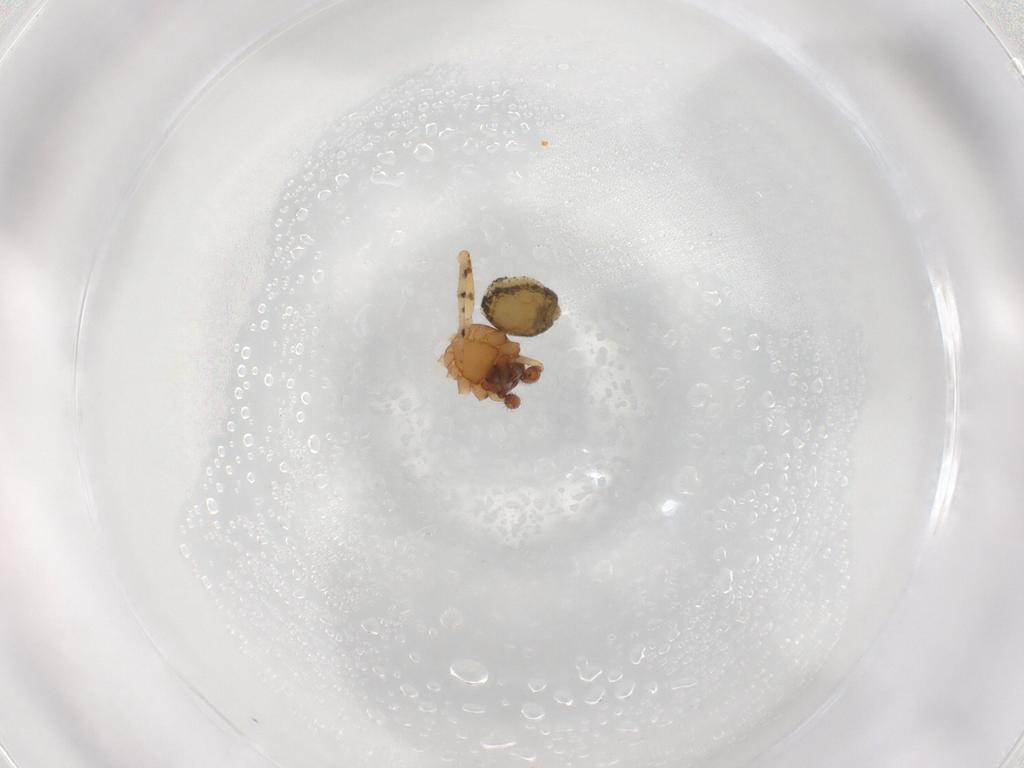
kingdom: Animalia
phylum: Arthropoda
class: Arachnida
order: Araneae
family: Theridiidae
